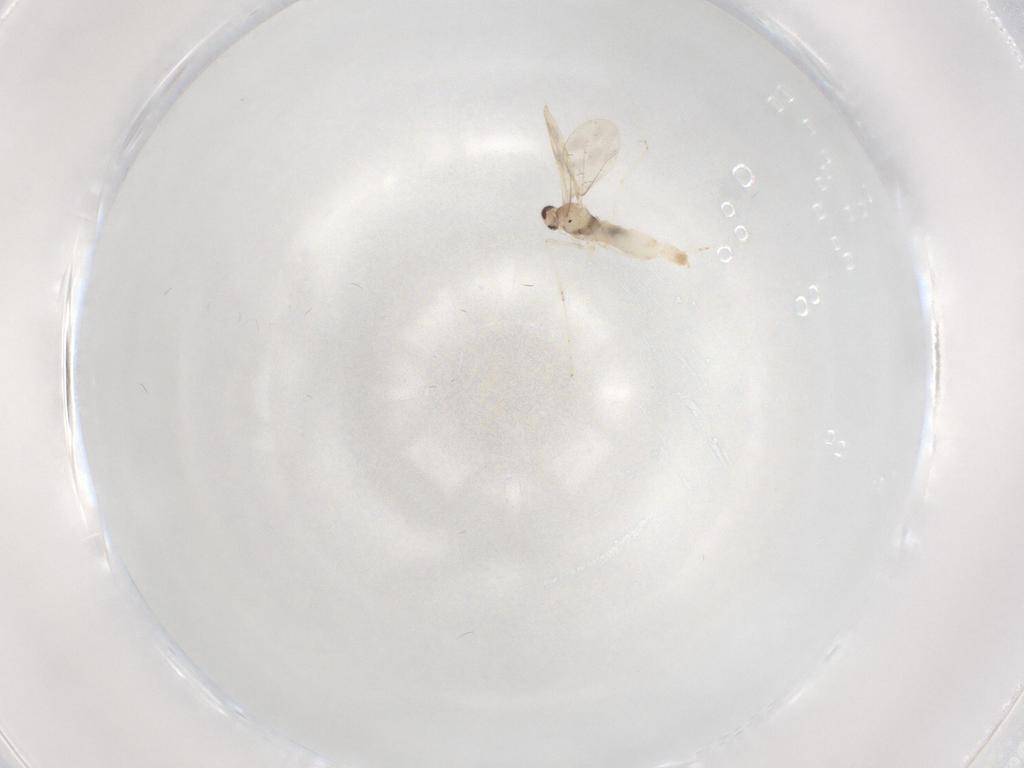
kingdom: Animalia
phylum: Arthropoda
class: Insecta
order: Diptera
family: Cecidomyiidae
